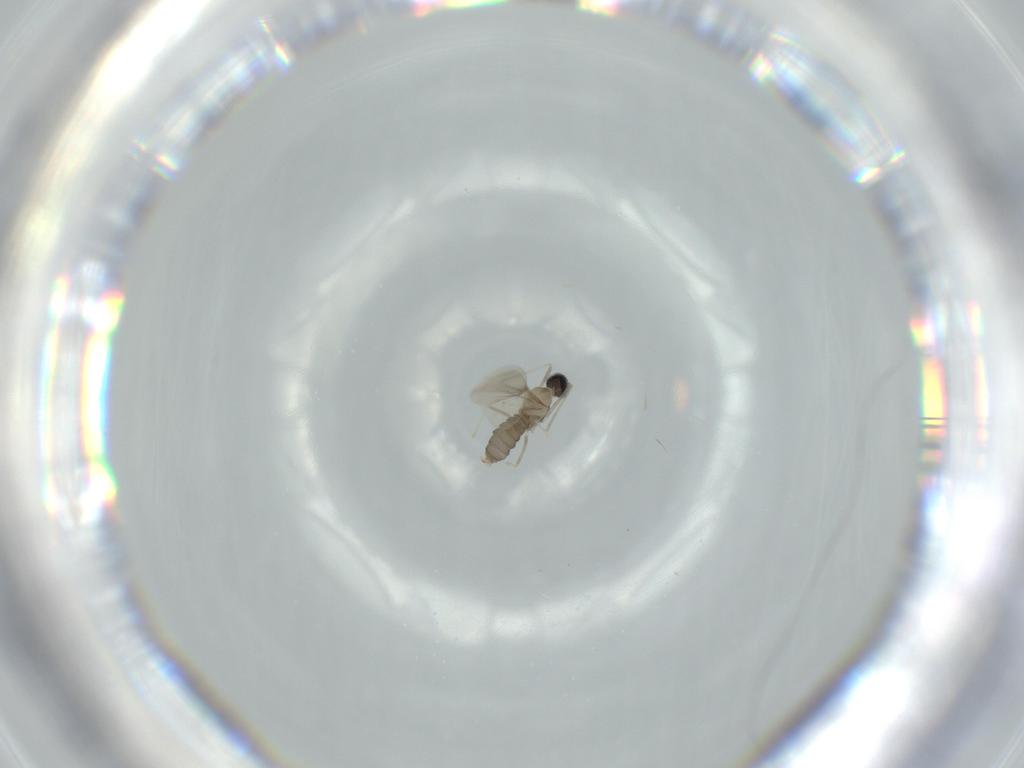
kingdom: Animalia
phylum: Arthropoda
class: Insecta
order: Diptera
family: Cecidomyiidae
